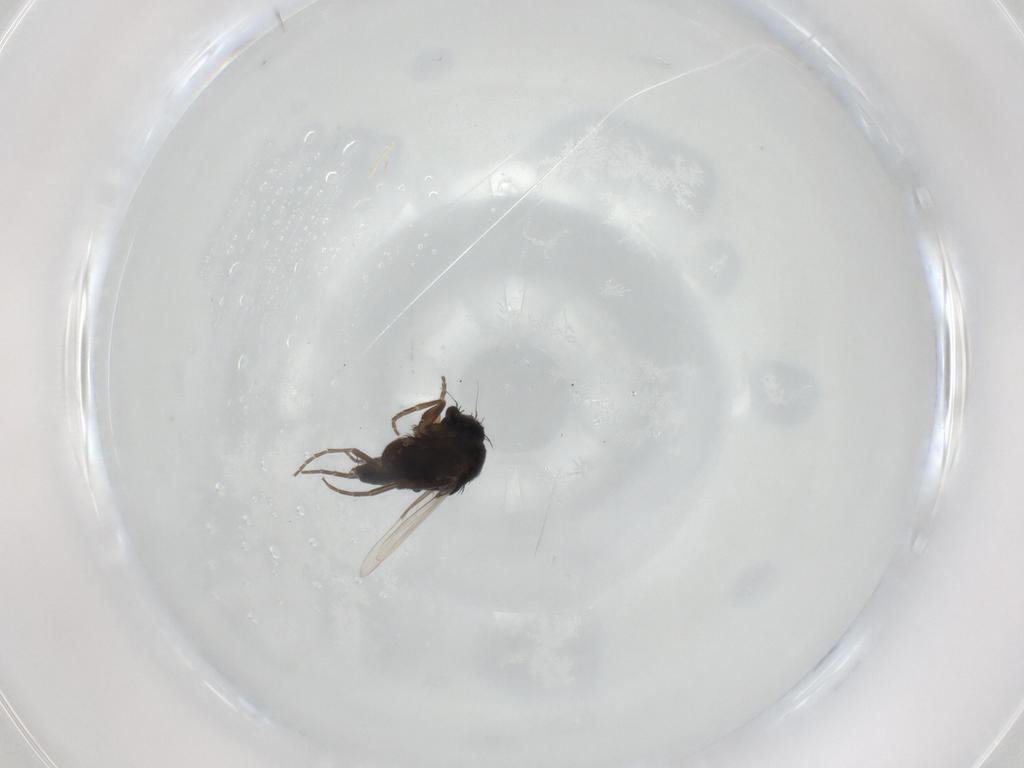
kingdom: Animalia
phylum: Arthropoda
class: Insecta
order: Diptera
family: Phoridae
